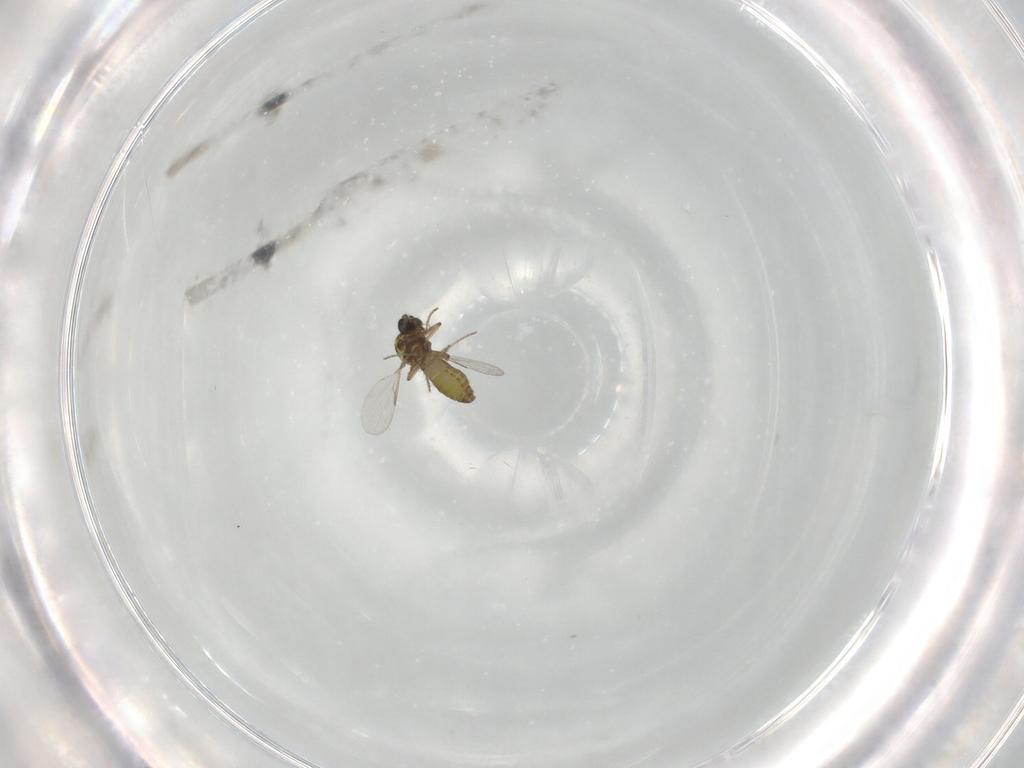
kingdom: Animalia
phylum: Arthropoda
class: Insecta
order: Diptera
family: Ceratopogonidae
